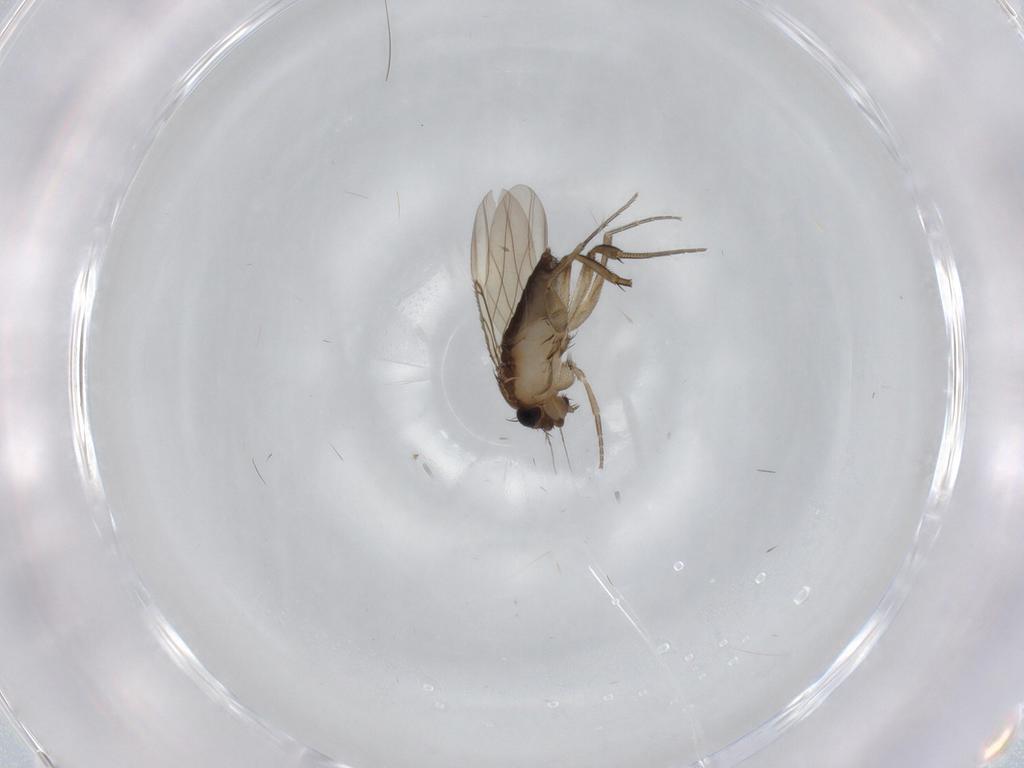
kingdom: Animalia
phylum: Arthropoda
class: Insecta
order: Diptera
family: Phoridae
